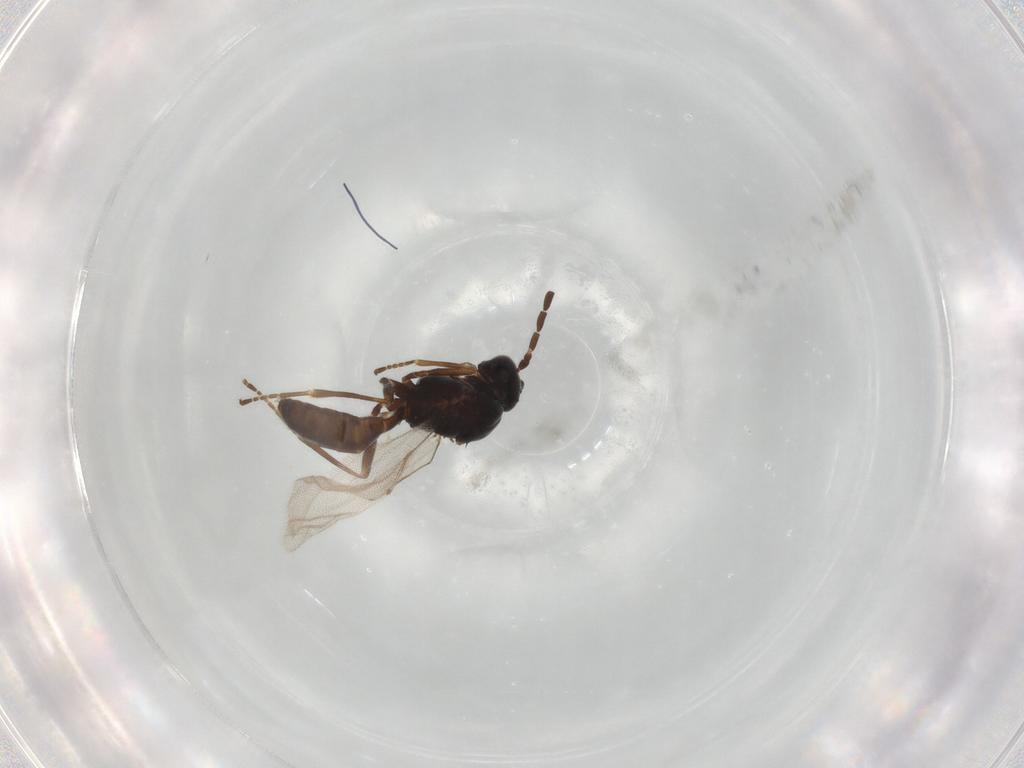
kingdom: Animalia
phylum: Arthropoda
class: Insecta
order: Hymenoptera
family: Braconidae
